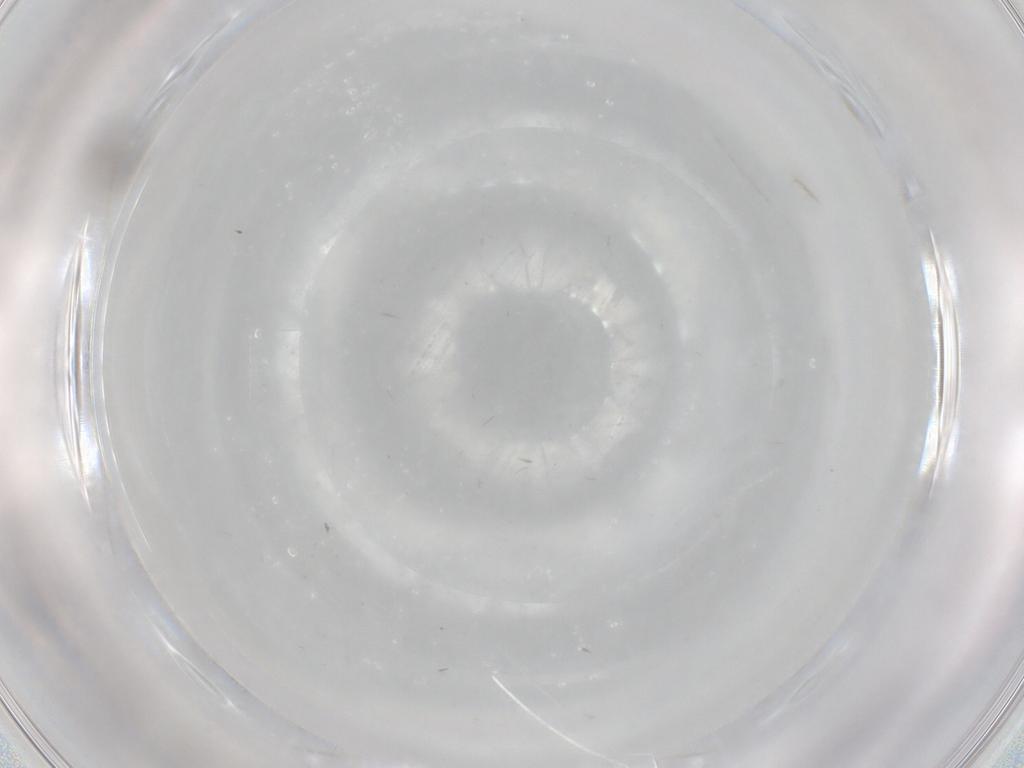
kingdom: Animalia
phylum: Arthropoda
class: Insecta
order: Diptera
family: Cecidomyiidae
